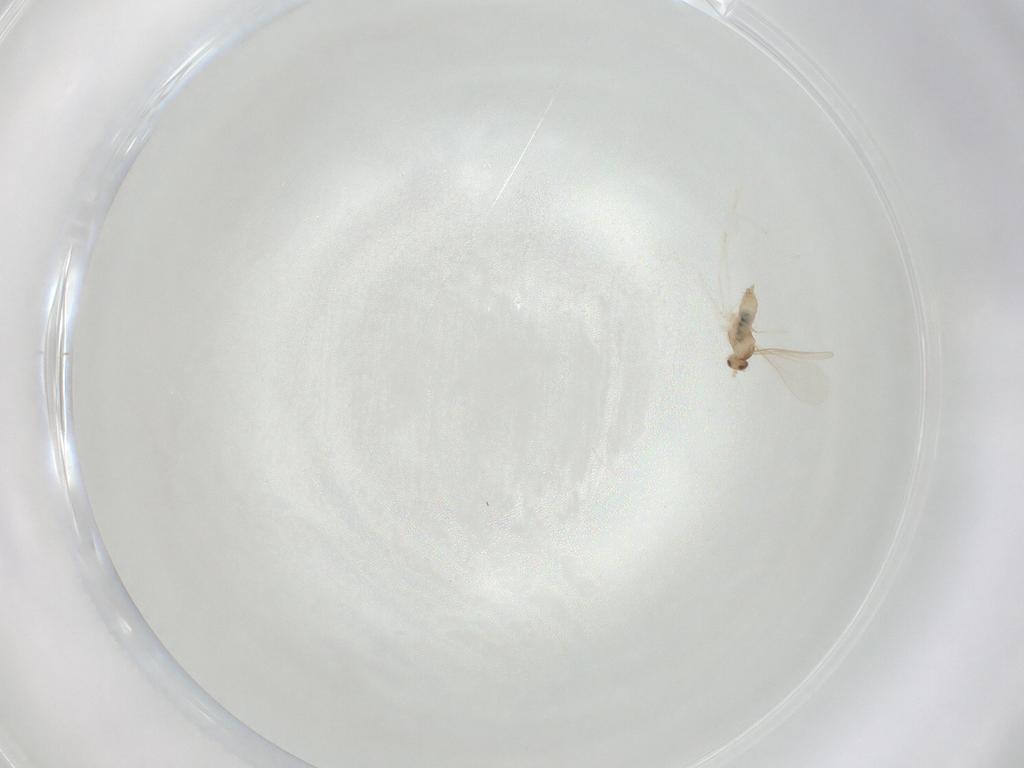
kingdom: Animalia
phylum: Arthropoda
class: Insecta
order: Diptera
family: Cecidomyiidae
